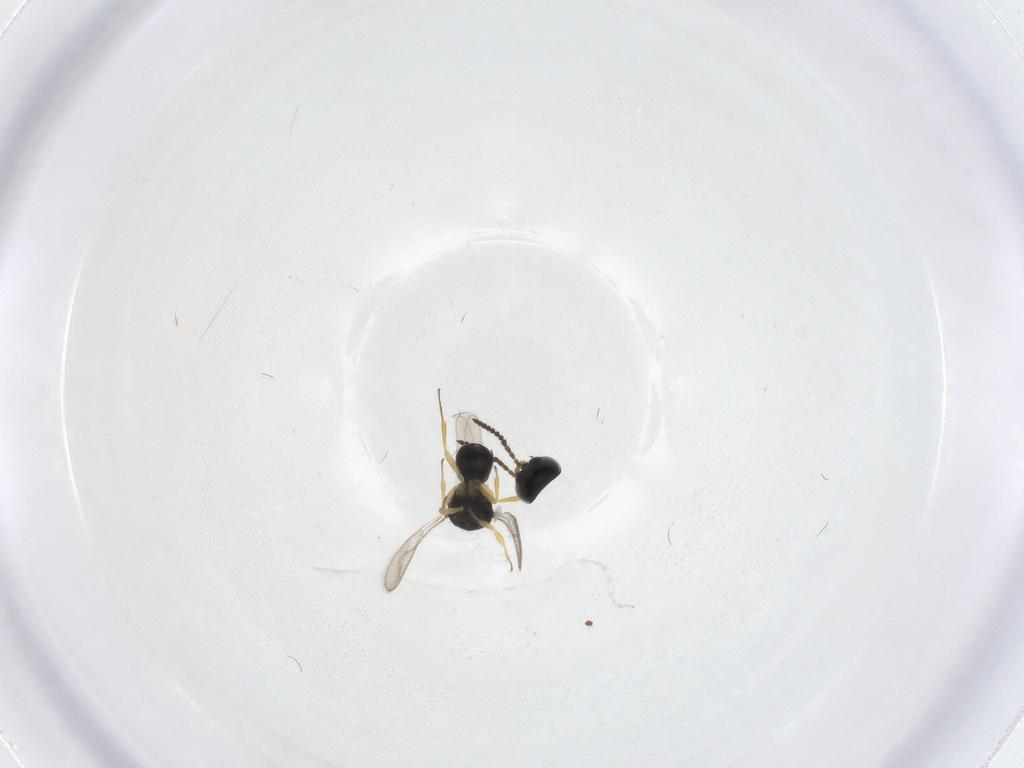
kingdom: Animalia
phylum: Arthropoda
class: Insecta
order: Hymenoptera
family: Scelionidae
